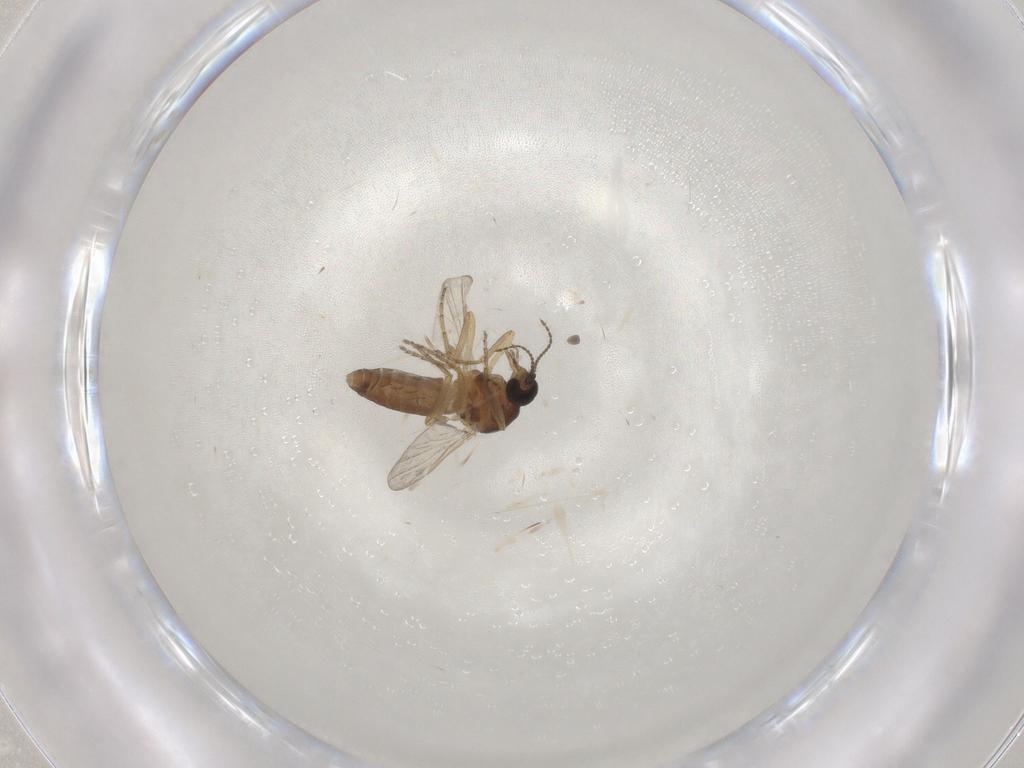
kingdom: Animalia
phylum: Arthropoda
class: Insecta
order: Diptera
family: Ceratopogonidae
